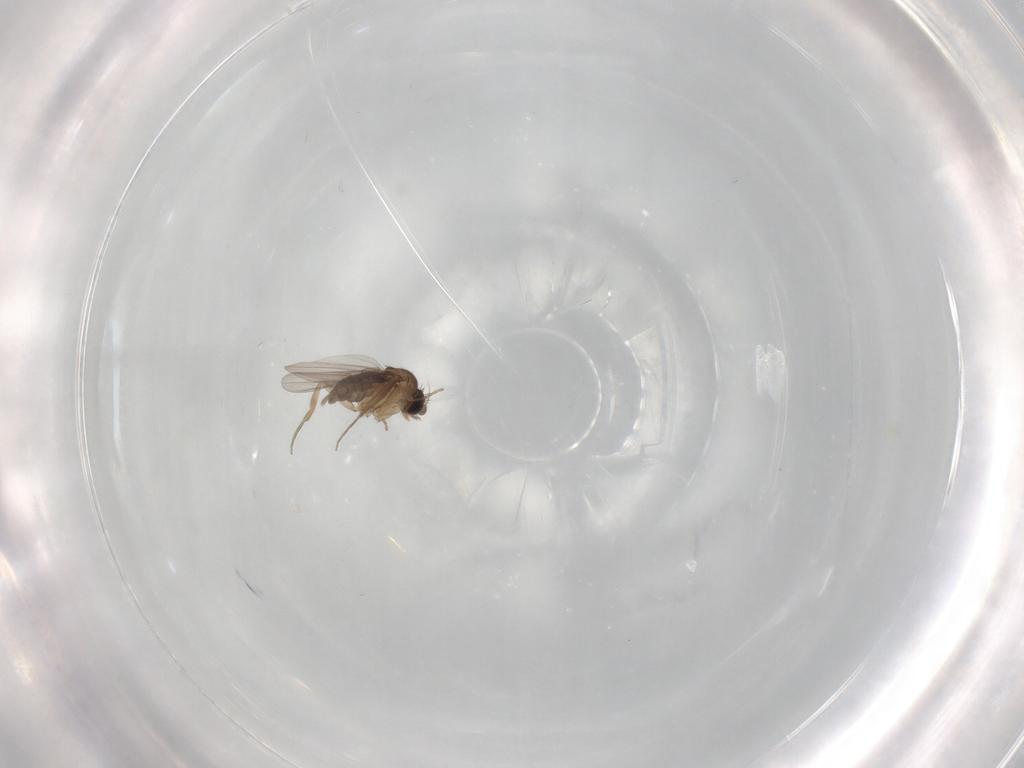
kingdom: Animalia
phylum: Arthropoda
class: Insecta
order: Diptera
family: Cecidomyiidae
